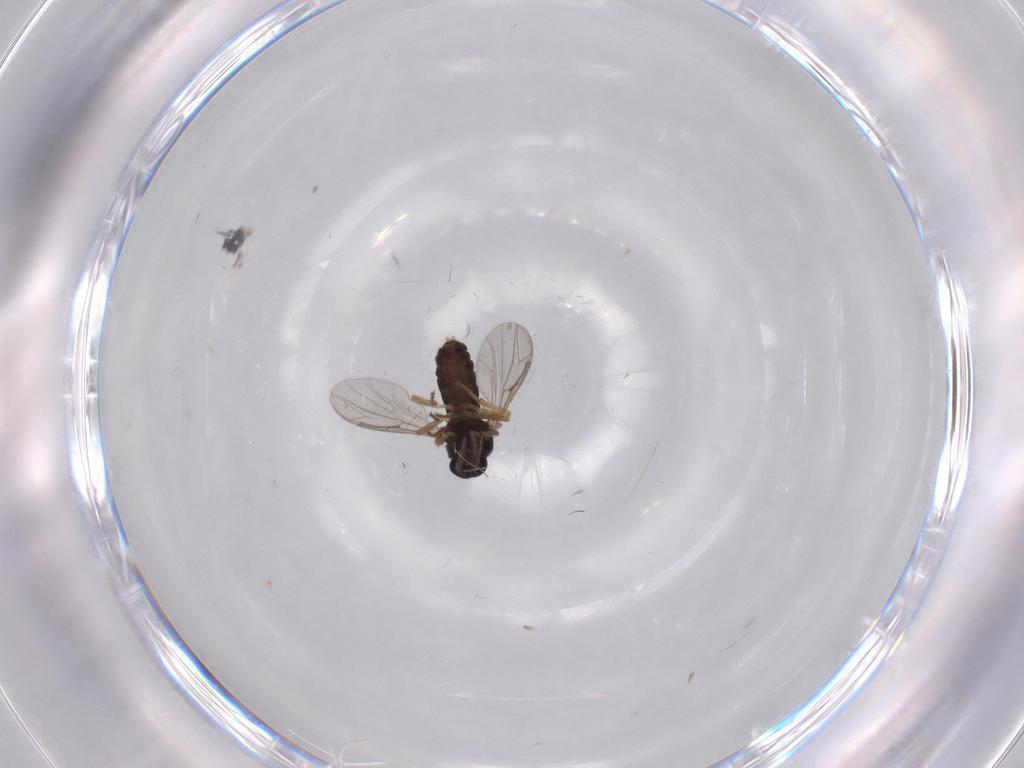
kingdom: Animalia
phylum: Arthropoda
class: Insecta
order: Diptera
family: Ceratopogonidae
